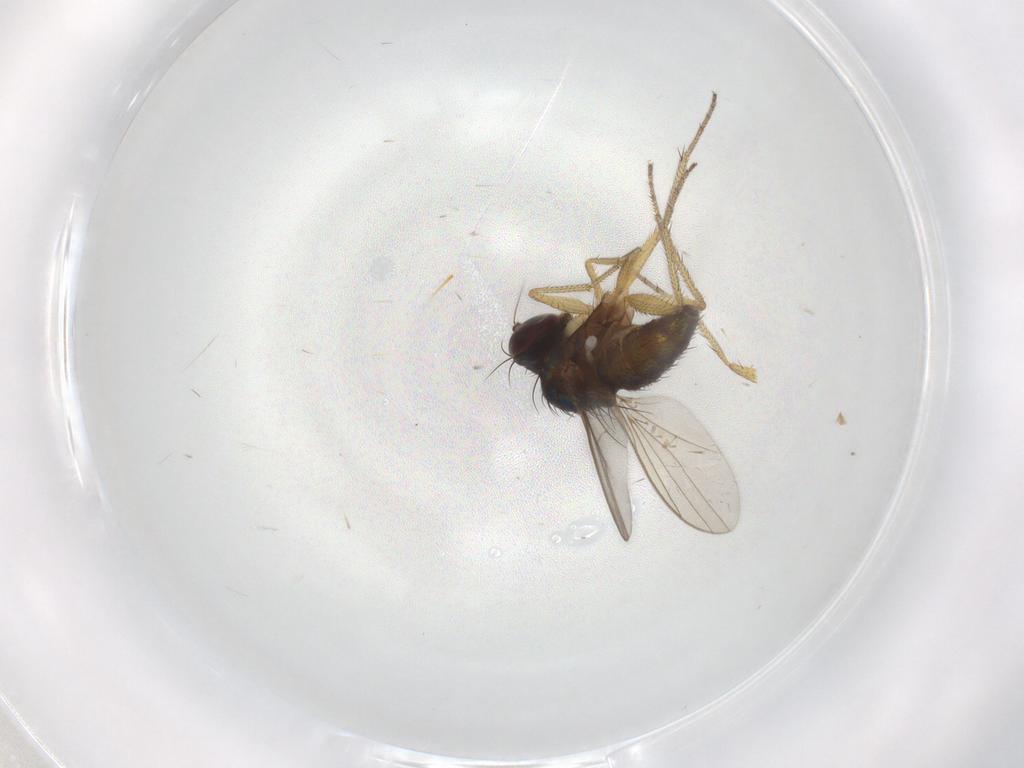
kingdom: Animalia
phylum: Arthropoda
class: Insecta
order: Diptera
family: Dolichopodidae
